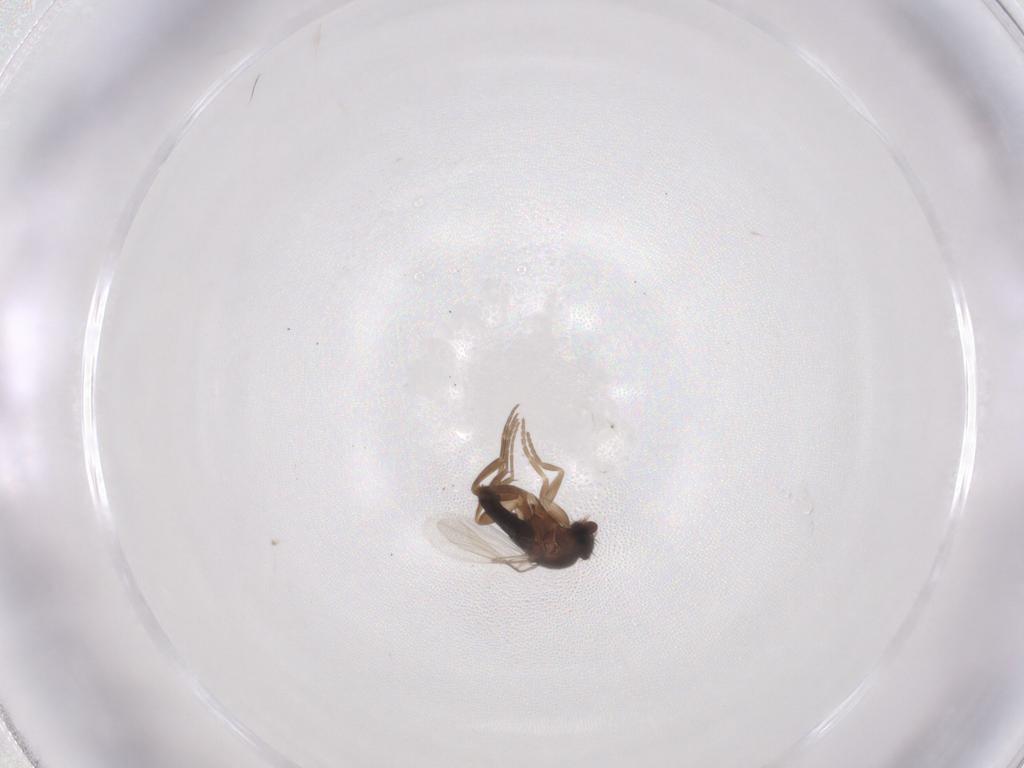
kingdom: Animalia
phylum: Arthropoda
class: Insecta
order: Diptera
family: Phoridae
